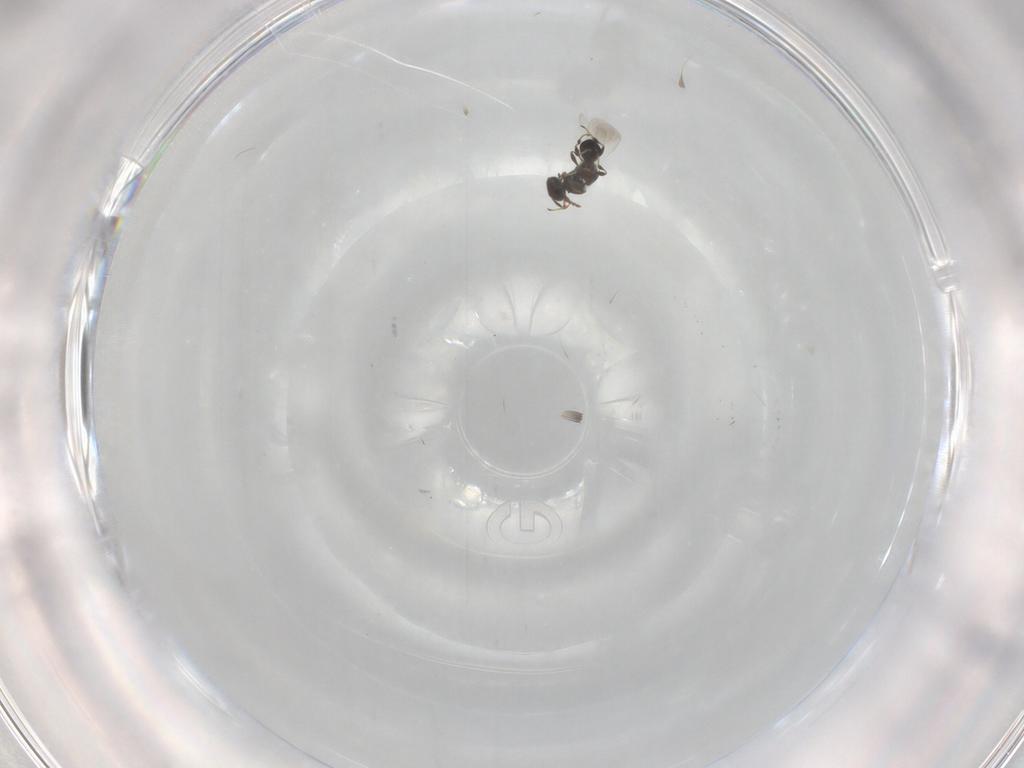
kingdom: Animalia
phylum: Arthropoda
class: Insecta
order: Hymenoptera
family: Platygastridae
